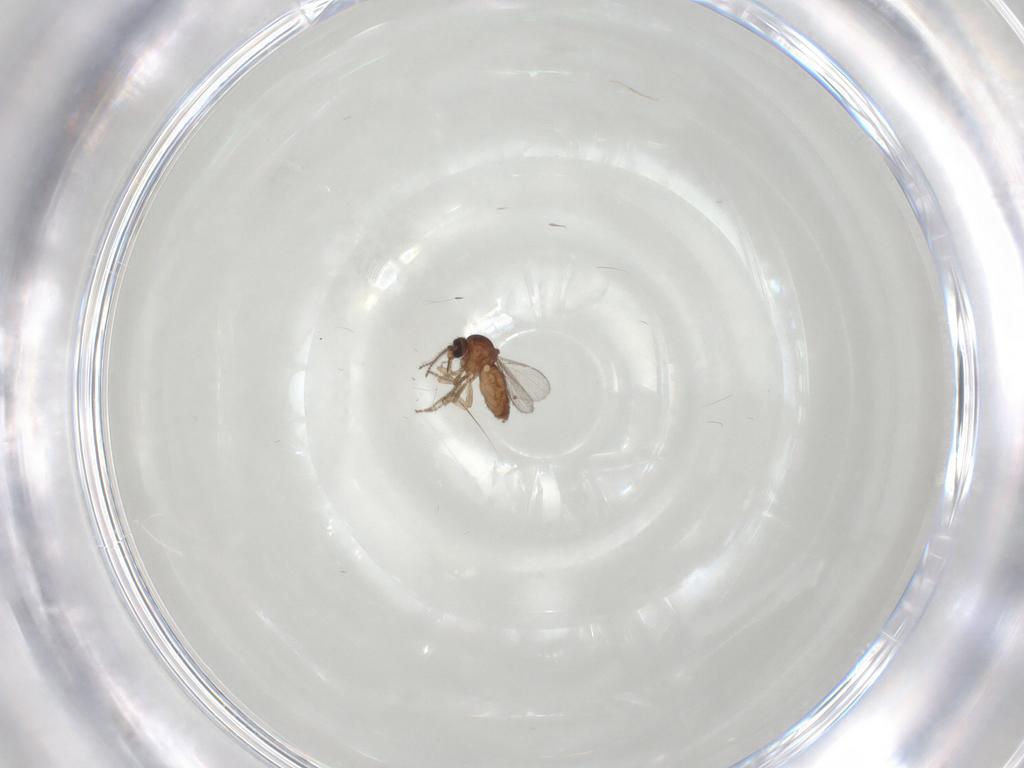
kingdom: Animalia
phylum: Arthropoda
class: Insecta
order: Diptera
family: Ceratopogonidae
